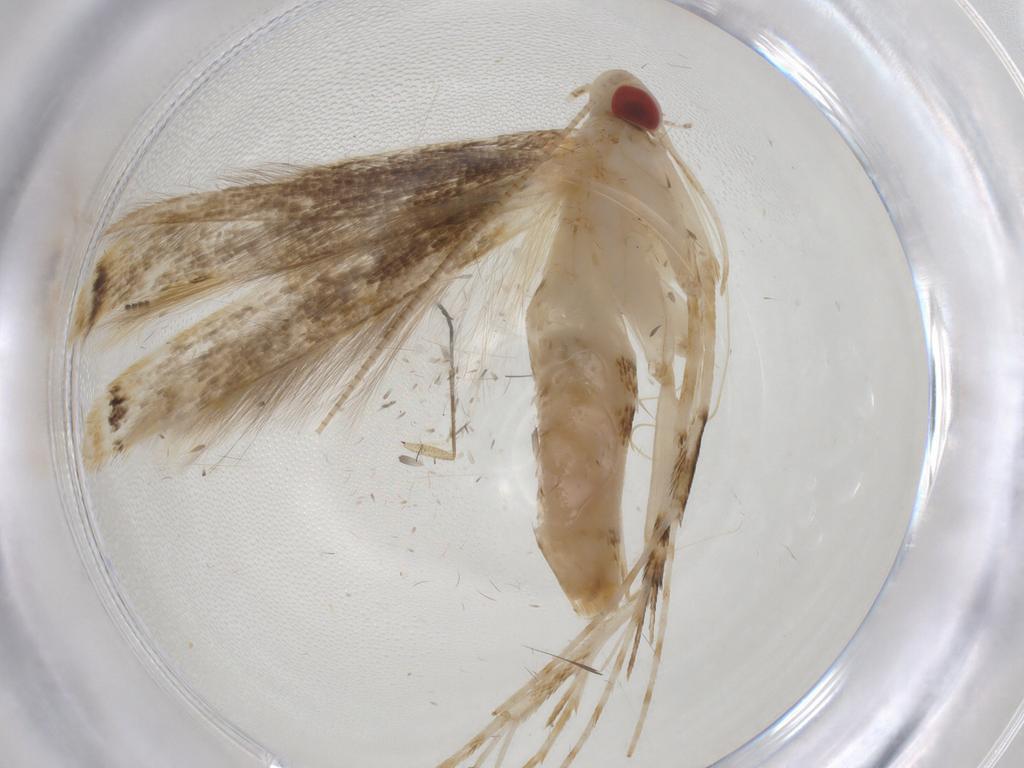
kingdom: Animalia
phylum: Arthropoda
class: Insecta
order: Lepidoptera
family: Gracillariidae
